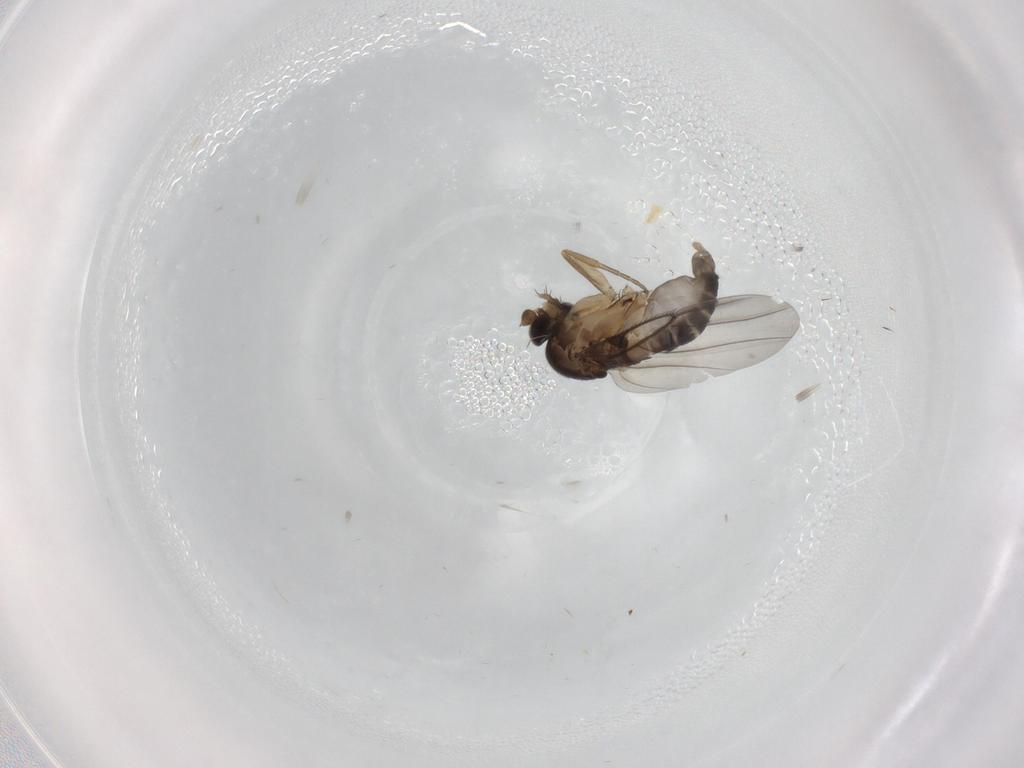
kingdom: Animalia
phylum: Arthropoda
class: Insecta
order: Diptera
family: Phoridae
